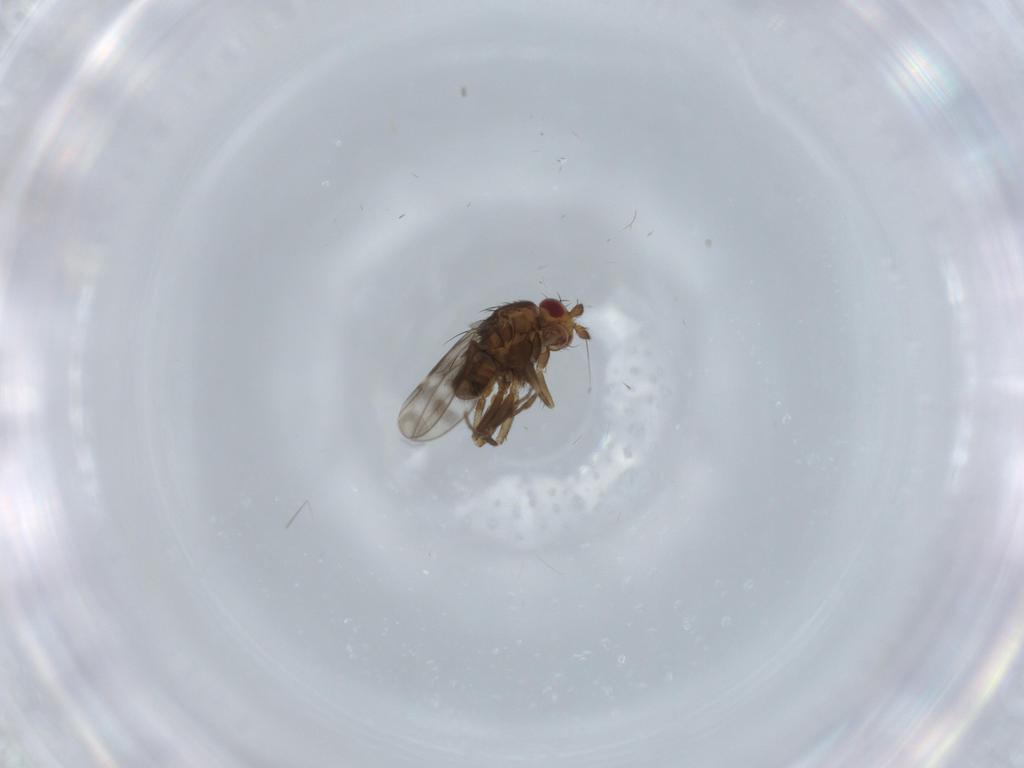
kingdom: Animalia
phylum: Arthropoda
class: Insecta
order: Diptera
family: Sphaeroceridae
